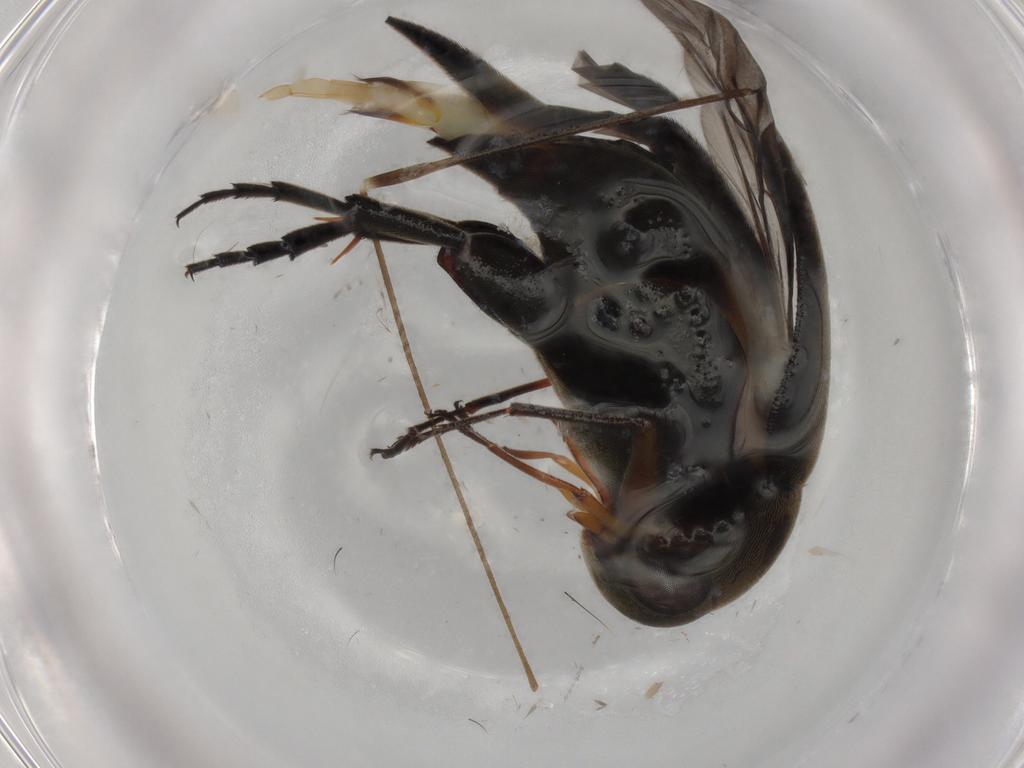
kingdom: Animalia
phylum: Arthropoda
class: Insecta
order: Coleoptera
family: Mordellidae
